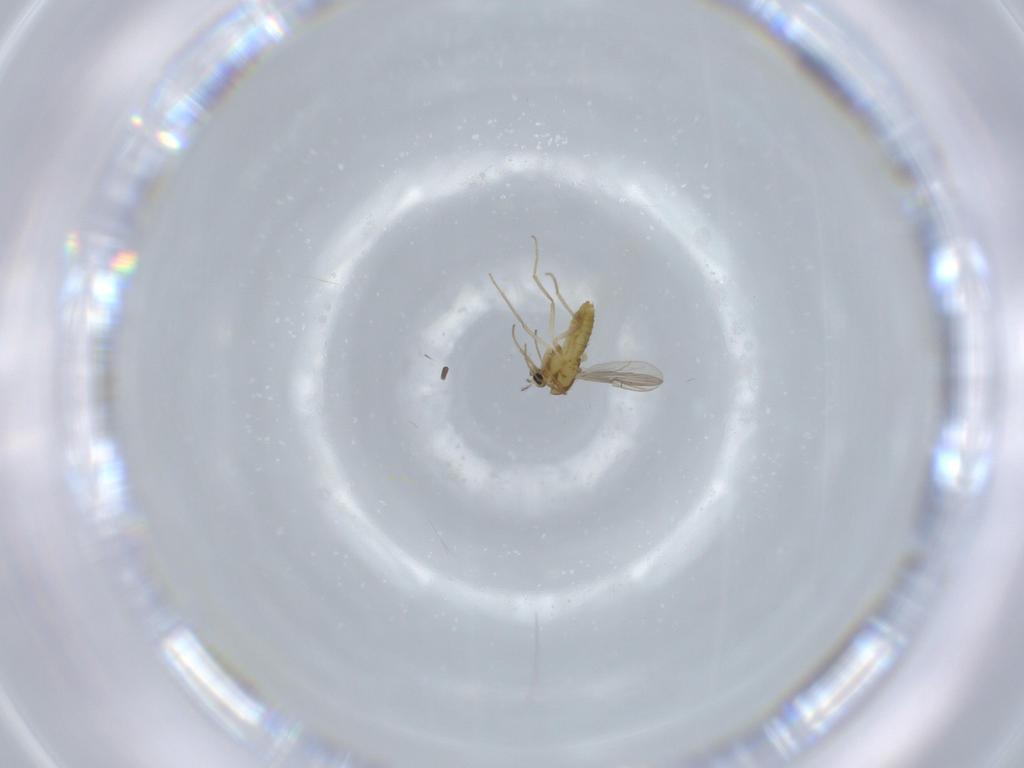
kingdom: Animalia
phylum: Arthropoda
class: Insecta
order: Diptera
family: Chironomidae
